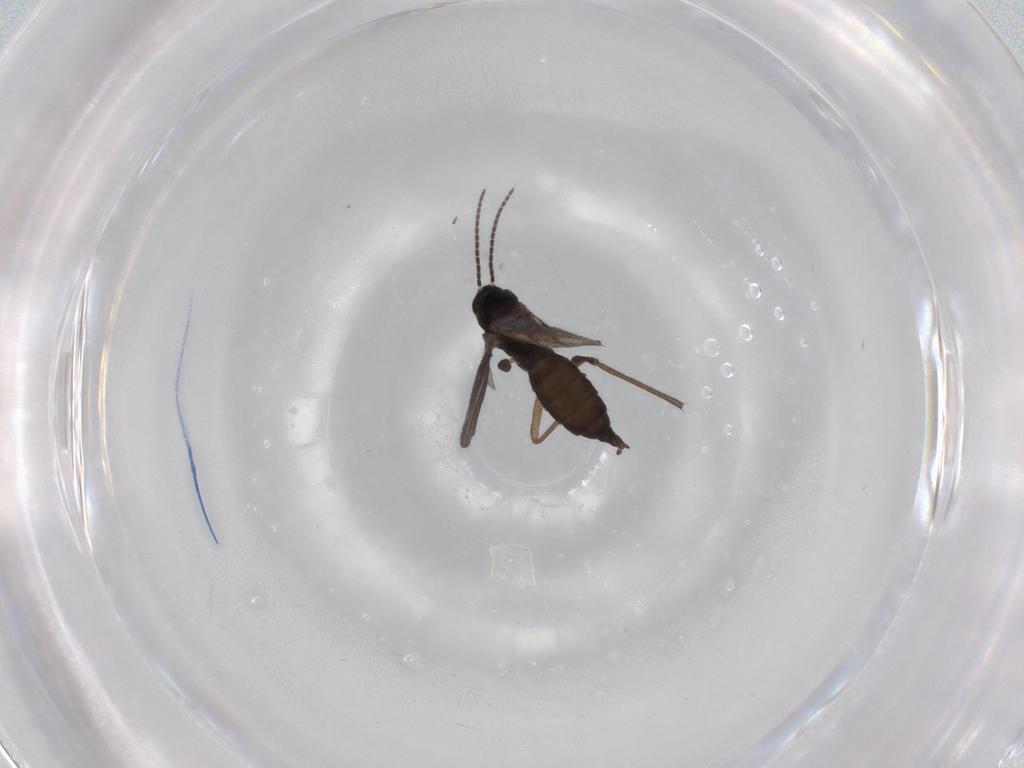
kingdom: Animalia
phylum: Arthropoda
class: Insecta
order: Diptera
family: Sciaridae
